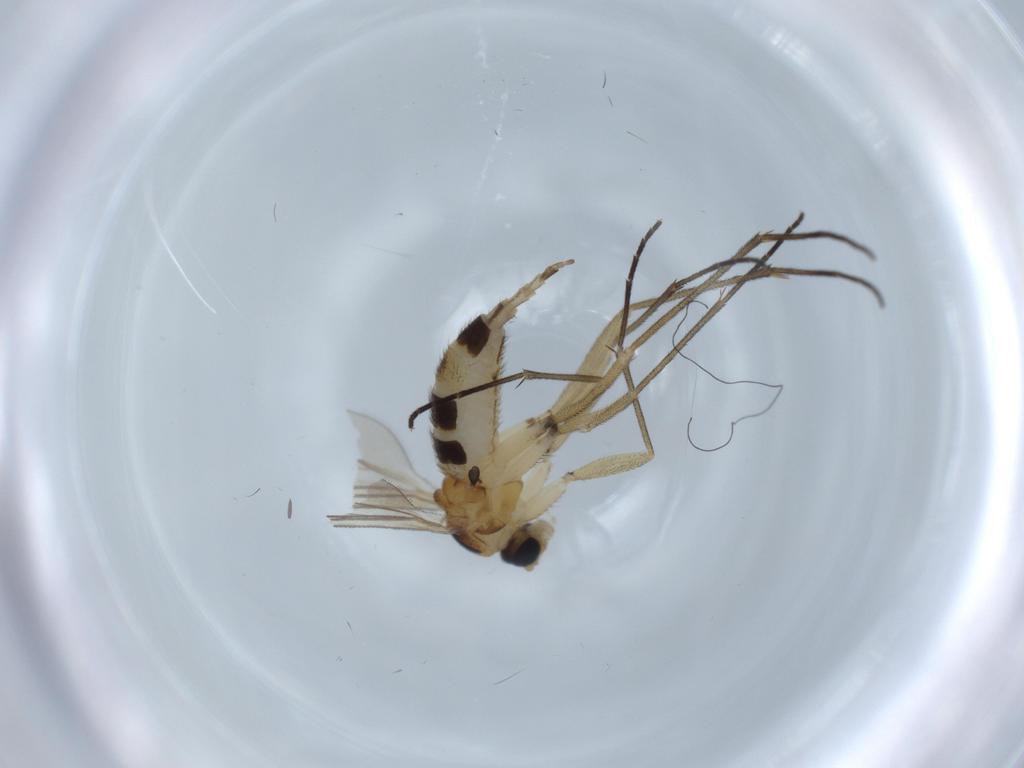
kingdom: Animalia
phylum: Arthropoda
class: Insecta
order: Diptera
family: Sciaridae
